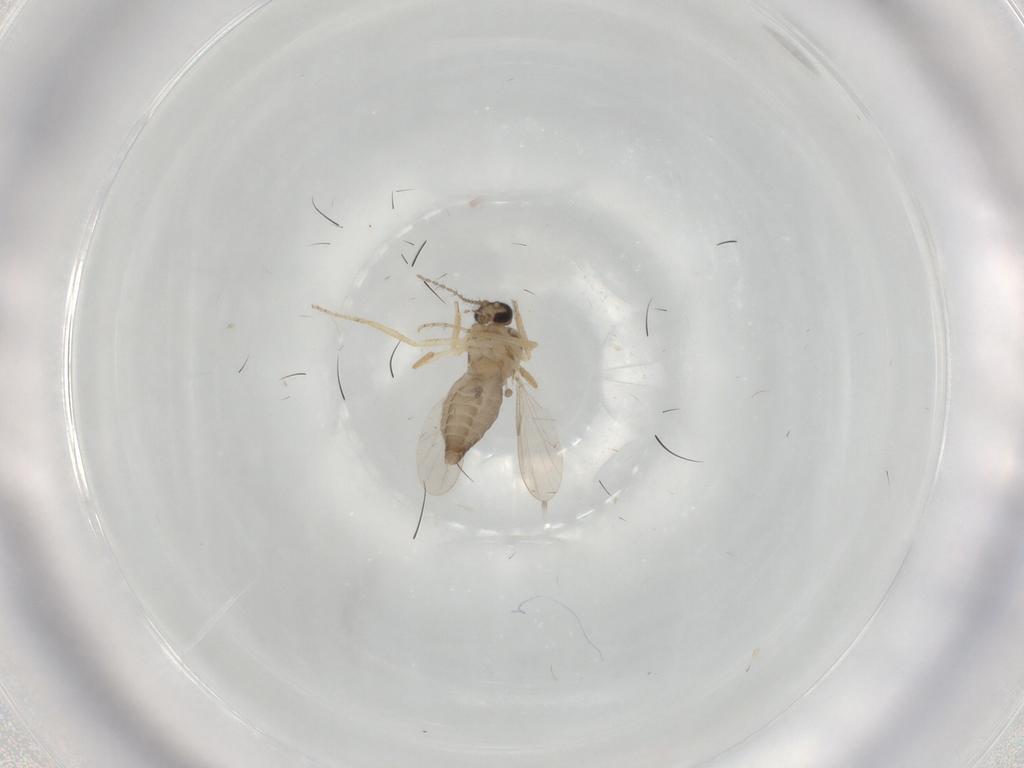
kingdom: Animalia
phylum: Arthropoda
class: Insecta
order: Diptera
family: Ceratopogonidae
